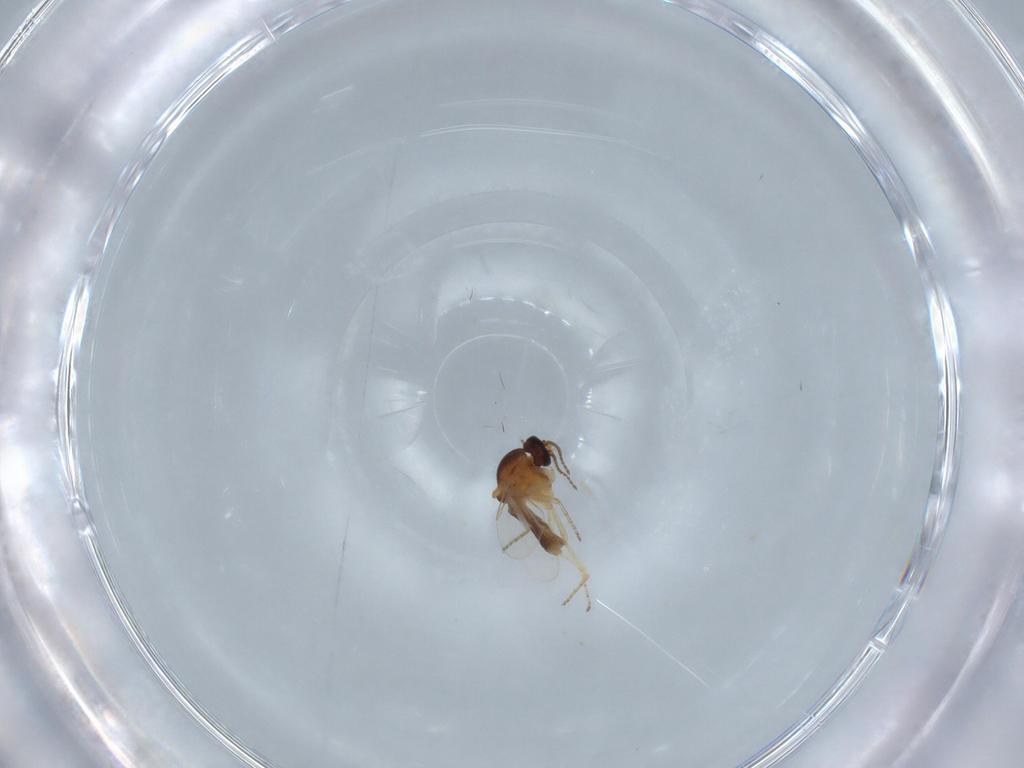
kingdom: Animalia
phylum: Arthropoda
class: Insecta
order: Diptera
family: Ceratopogonidae
